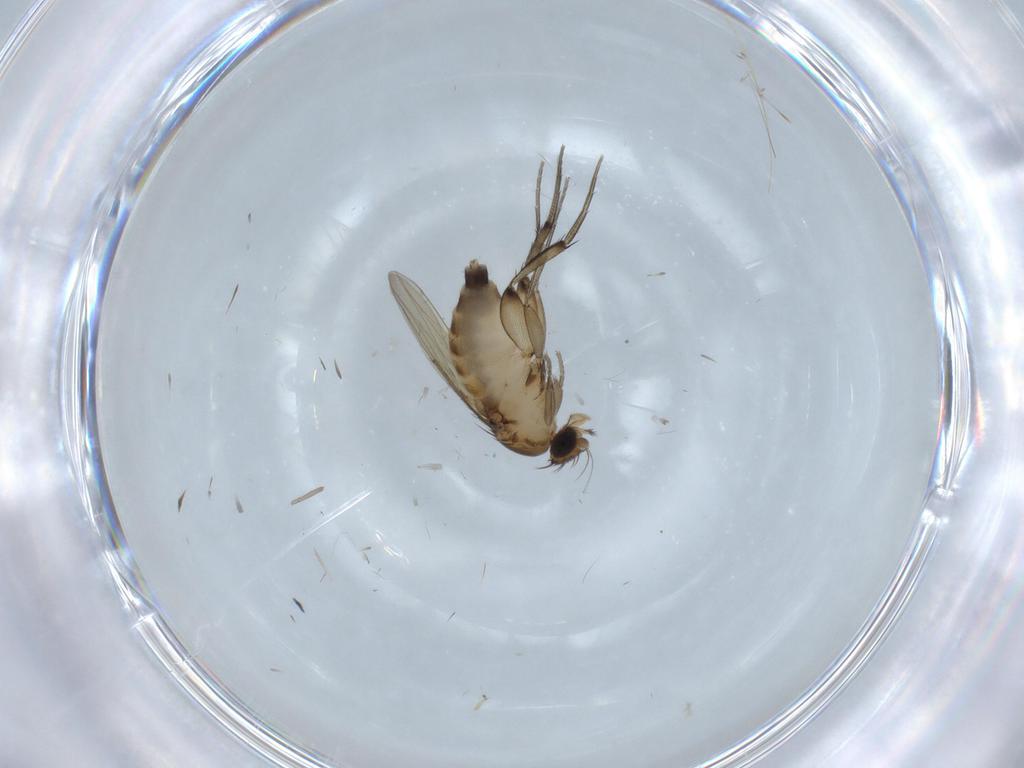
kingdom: Animalia
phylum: Arthropoda
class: Insecta
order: Diptera
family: Phoridae
